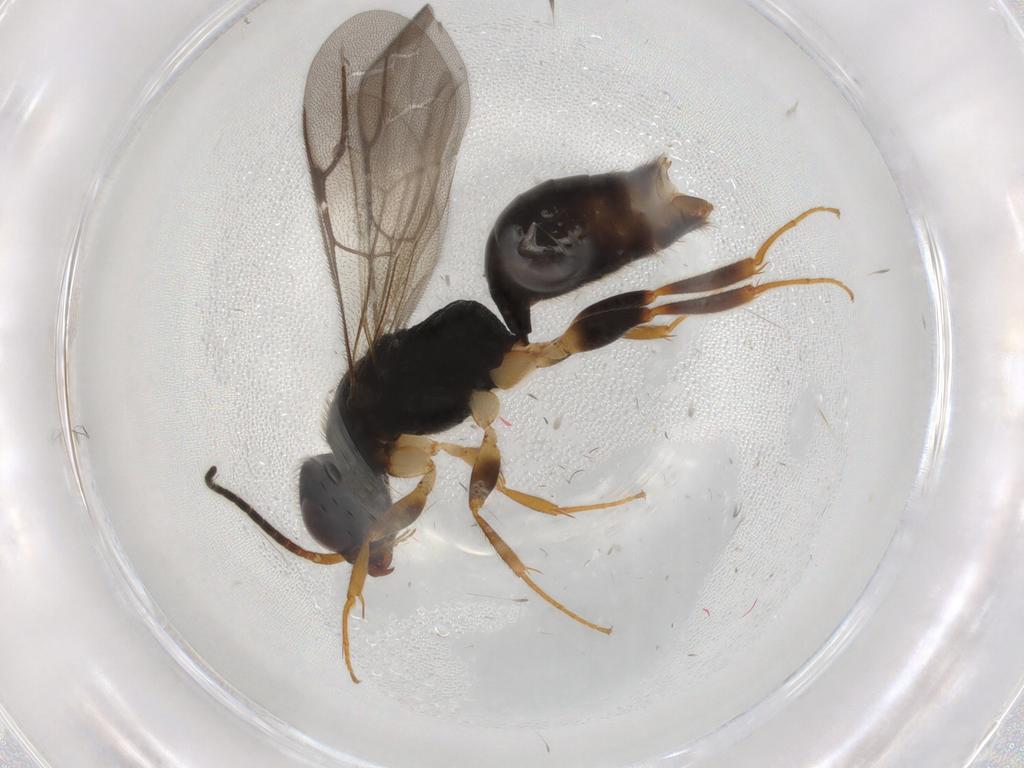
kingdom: Animalia
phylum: Arthropoda
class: Insecta
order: Hymenoptera
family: Bethylidae
